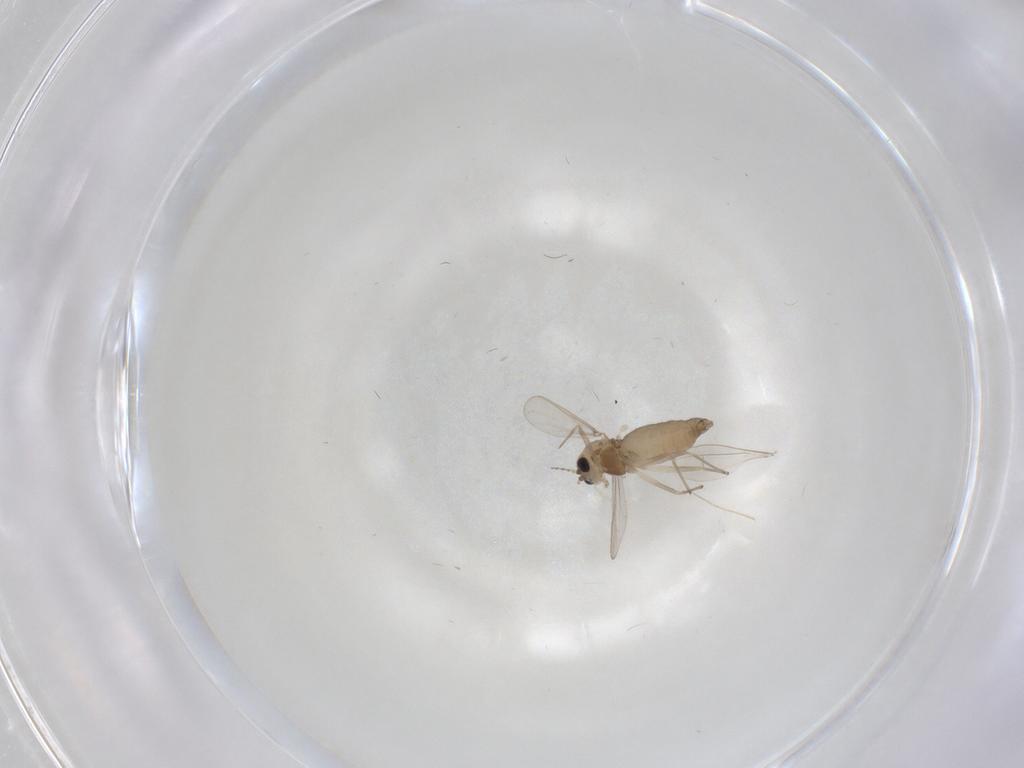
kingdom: Animalia
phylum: Arthropoda
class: Insecta
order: Diptera
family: Chironomidae
